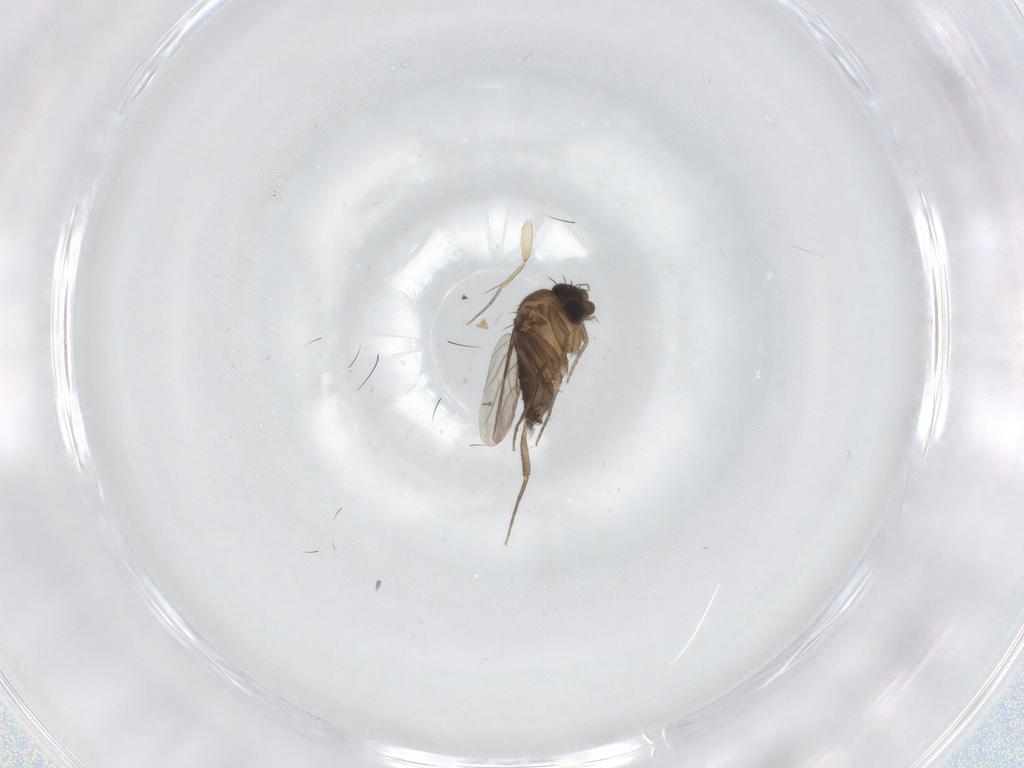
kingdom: Animalia
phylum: Arthropoda
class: Insecta
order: Diptera
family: Phoridae
